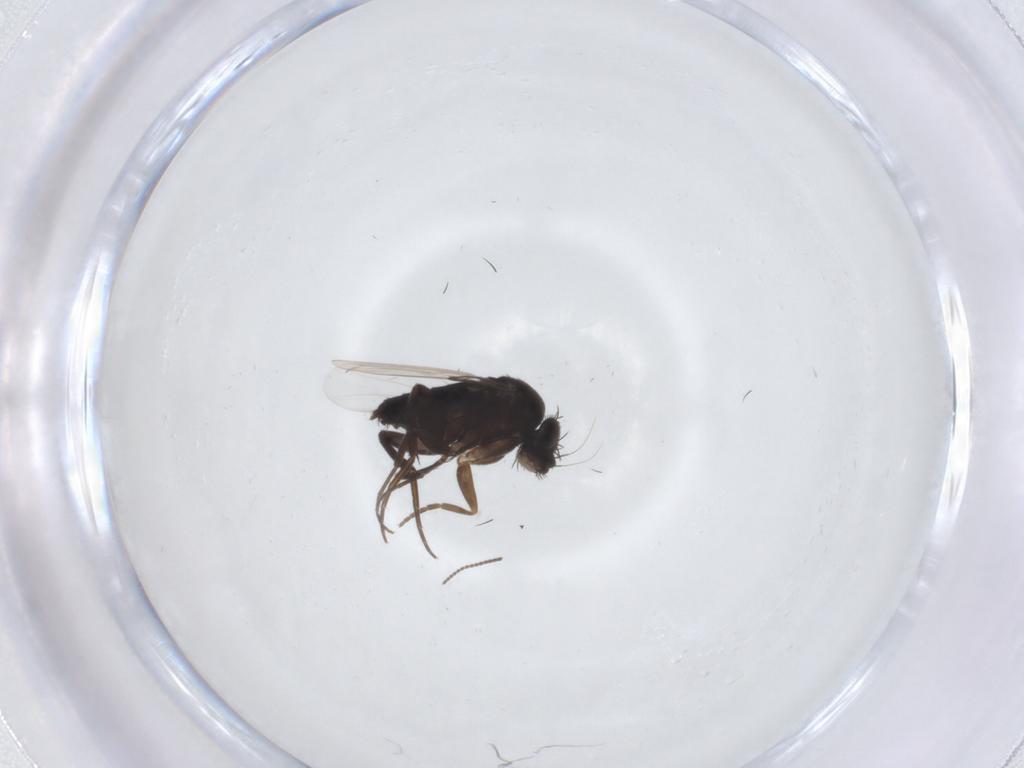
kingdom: Animalia
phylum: Arthropoda
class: Insecta
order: Diptera
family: Phoridae
